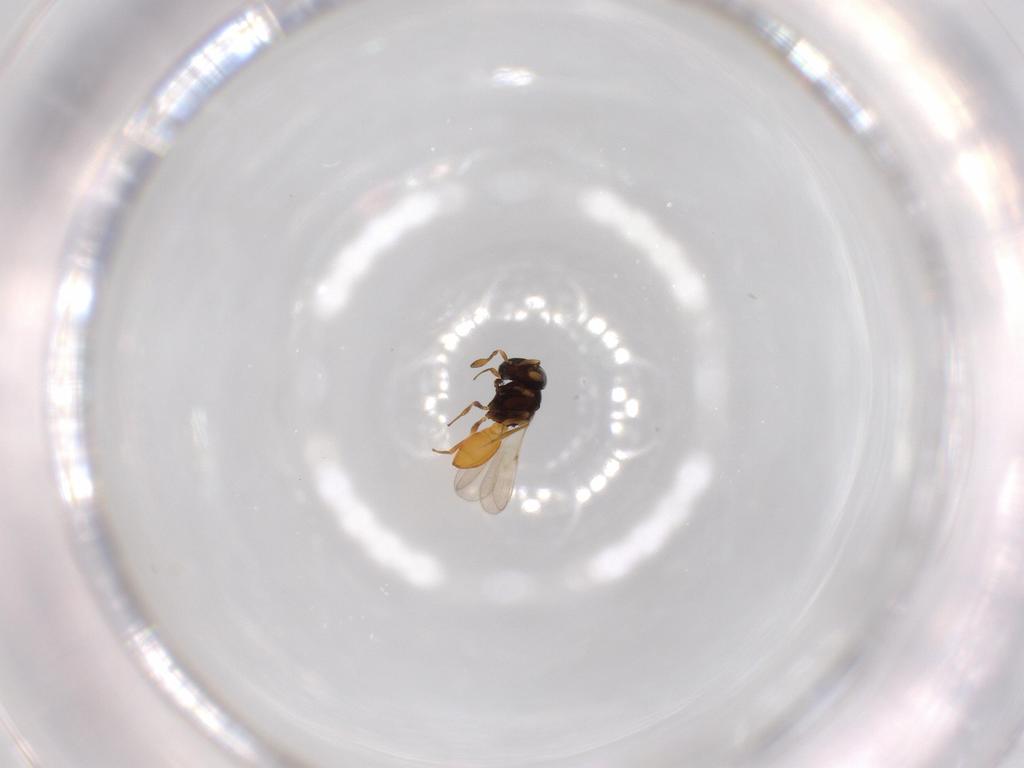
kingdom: Animalia
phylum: Arthropoda
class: Insecta
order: Hymenoptera
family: Scelionidae
